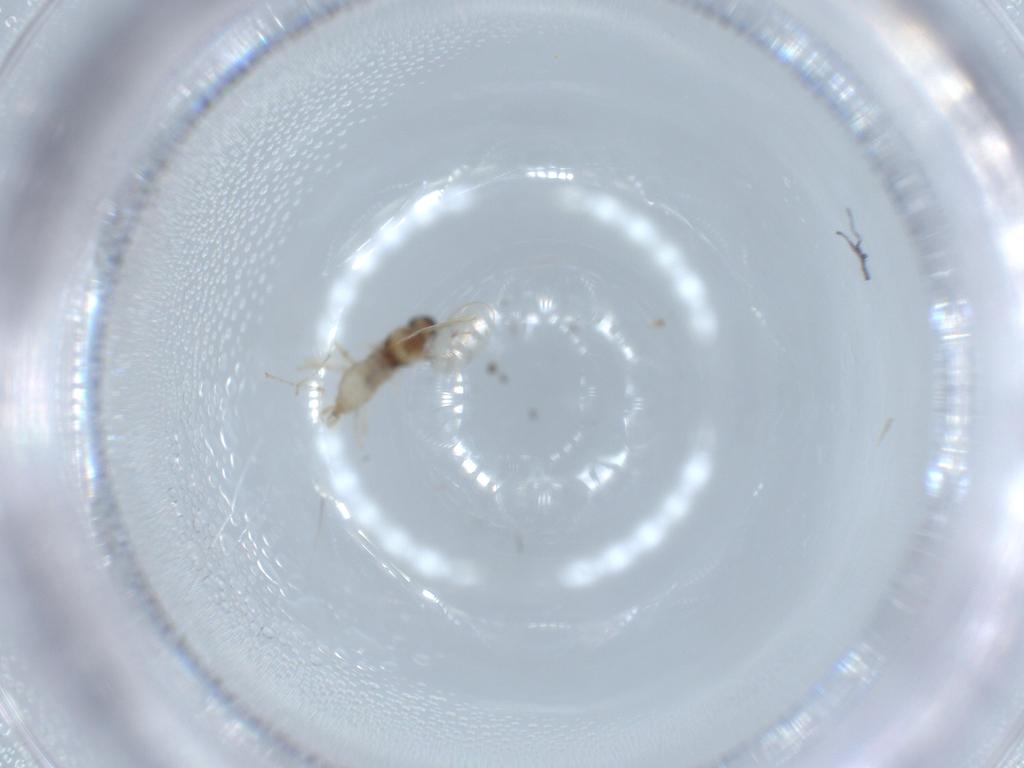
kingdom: Animalia
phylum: Arthropoda
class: Insecta
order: Diptera
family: Cecidomyiidae
